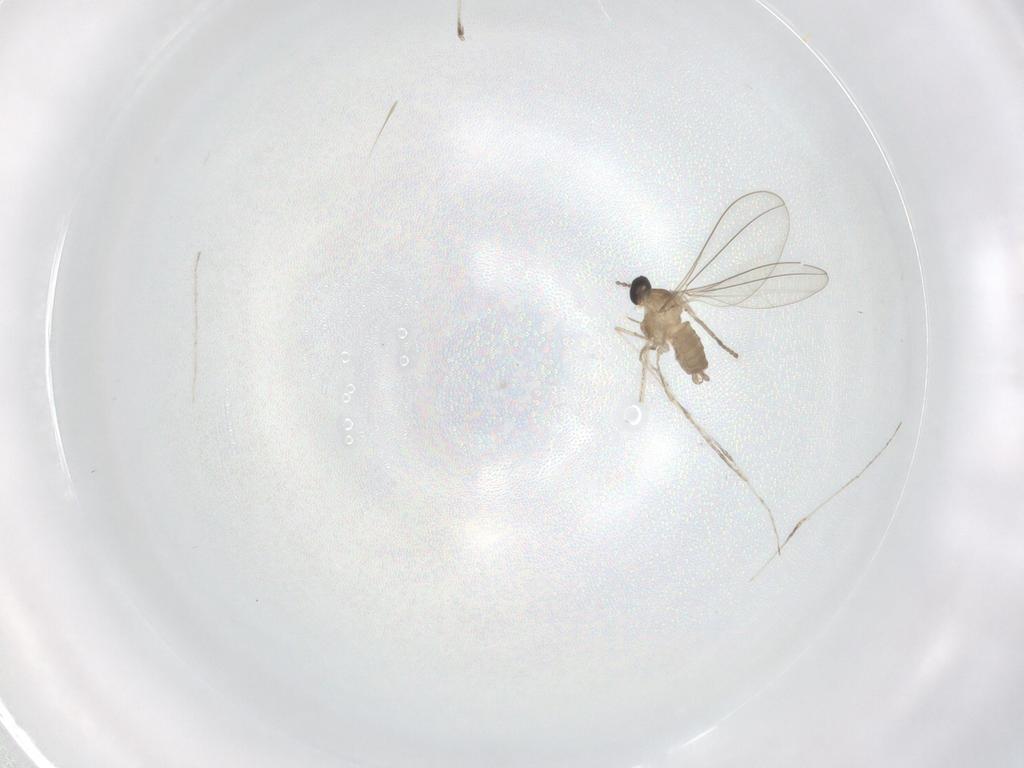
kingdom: Animalia
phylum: Arthropoda
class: Insecta
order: Diptera
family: Cecidomyiidae
